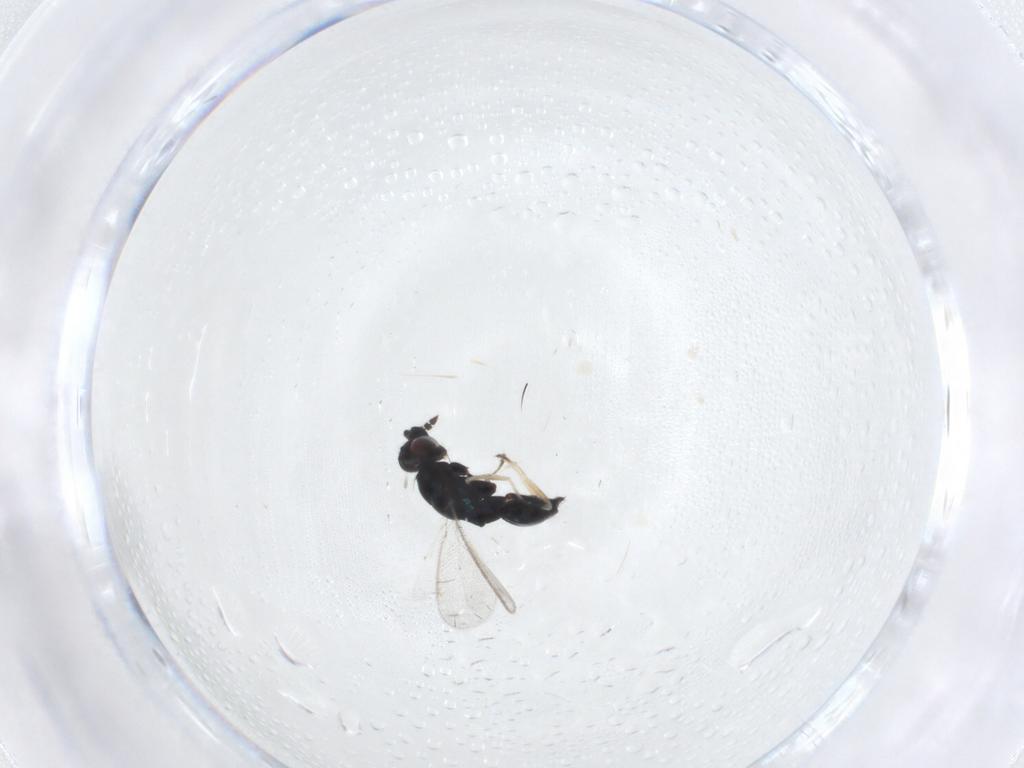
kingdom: Animalia
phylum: Arthropoda
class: Insecta
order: Hymenoptera
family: Eulophidae
